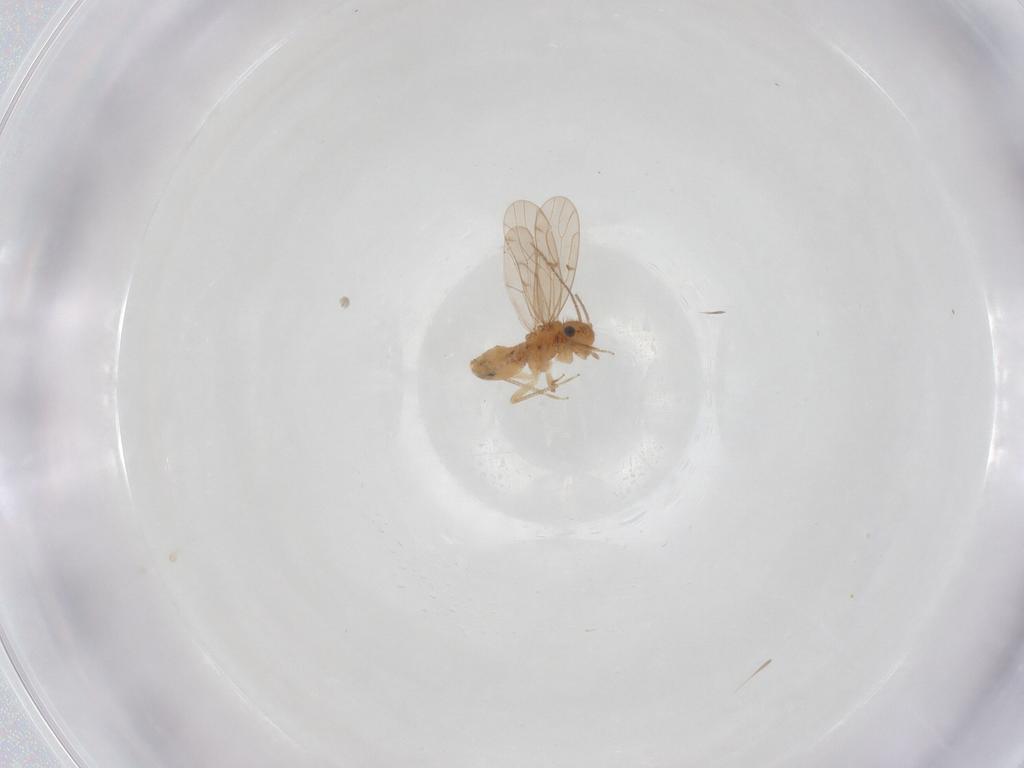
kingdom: Animalia
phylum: Arthropoda
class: Insecta
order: Psocodea
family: Ectopsocidae
